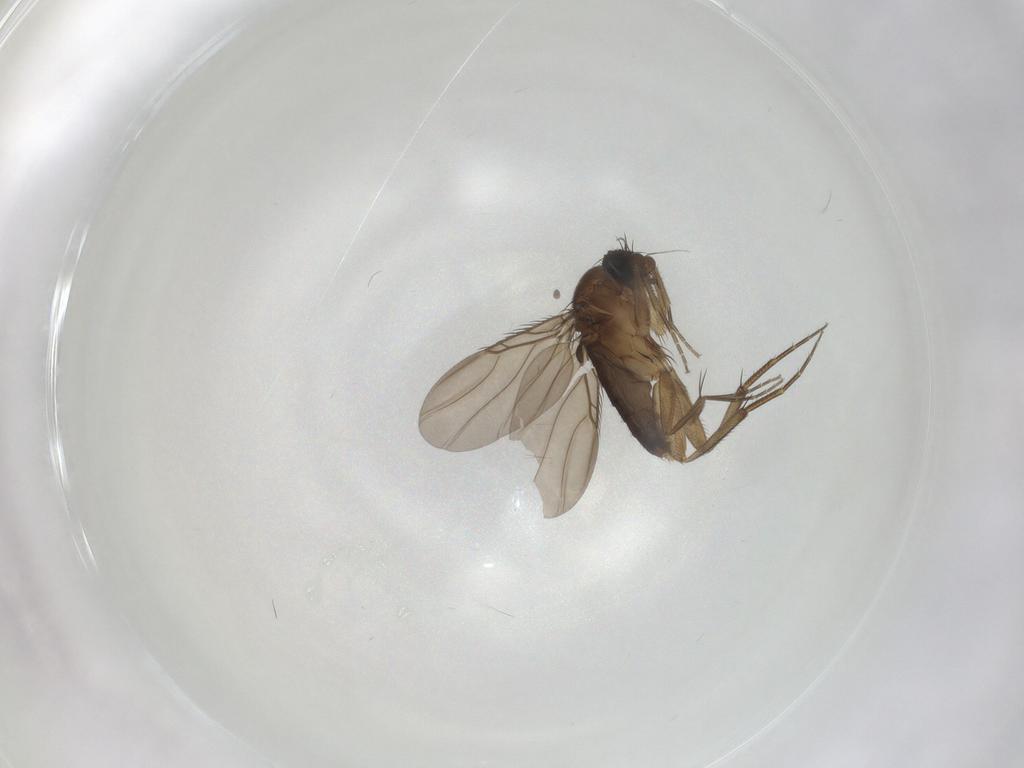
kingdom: Animalia
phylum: Arthropoda
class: Insecta
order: Diptera
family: Phoridae
